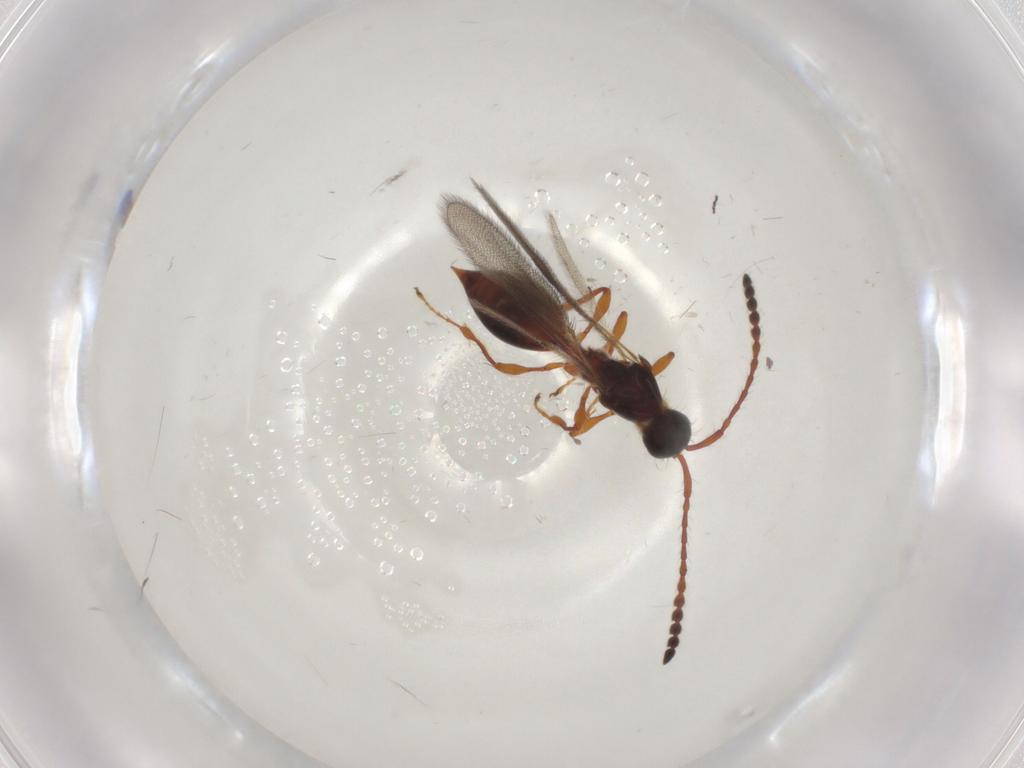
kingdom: Animalia
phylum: Arthropoda
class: Insecta
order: Hymenoptera
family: Diapriidae
